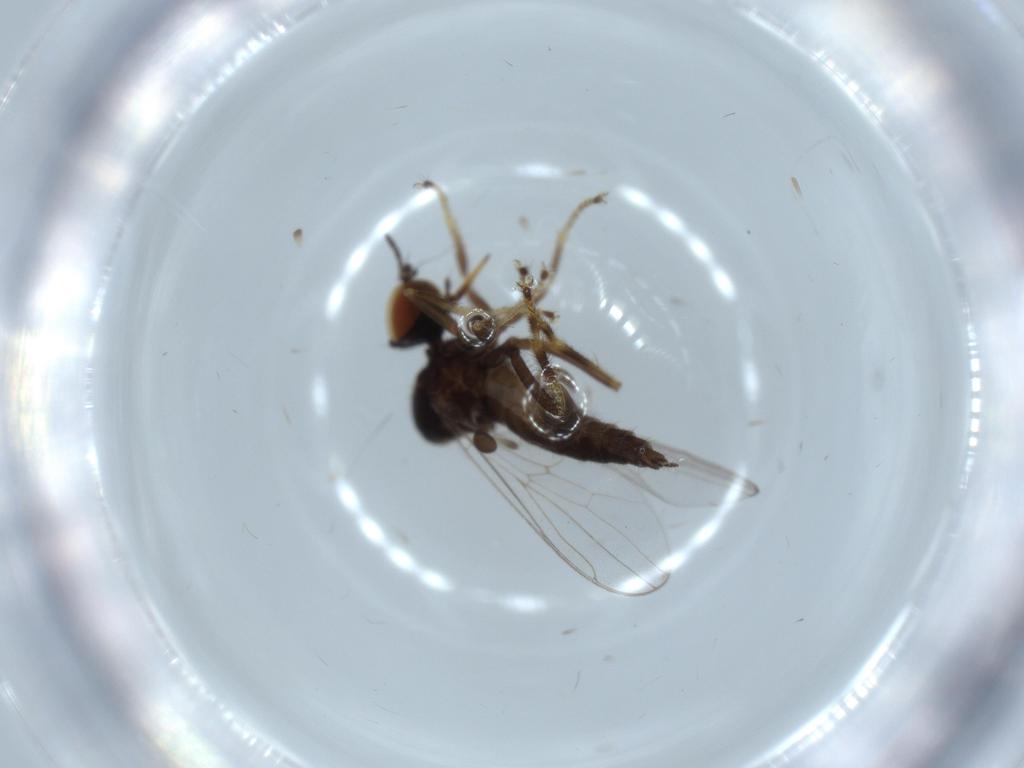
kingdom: Animalia
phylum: Arthropoda
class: Insecta
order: Diptera
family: Hybotidae
